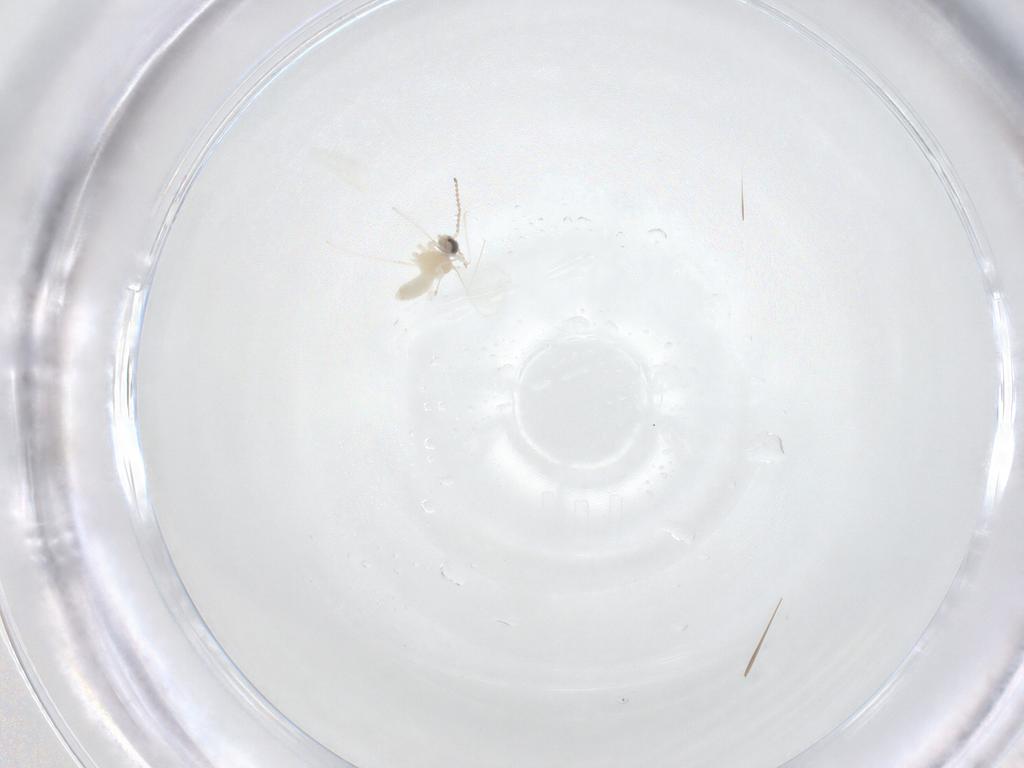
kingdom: Animalia
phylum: Arthropoda
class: Insecta
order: Diptera
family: Cecidomyiidae
